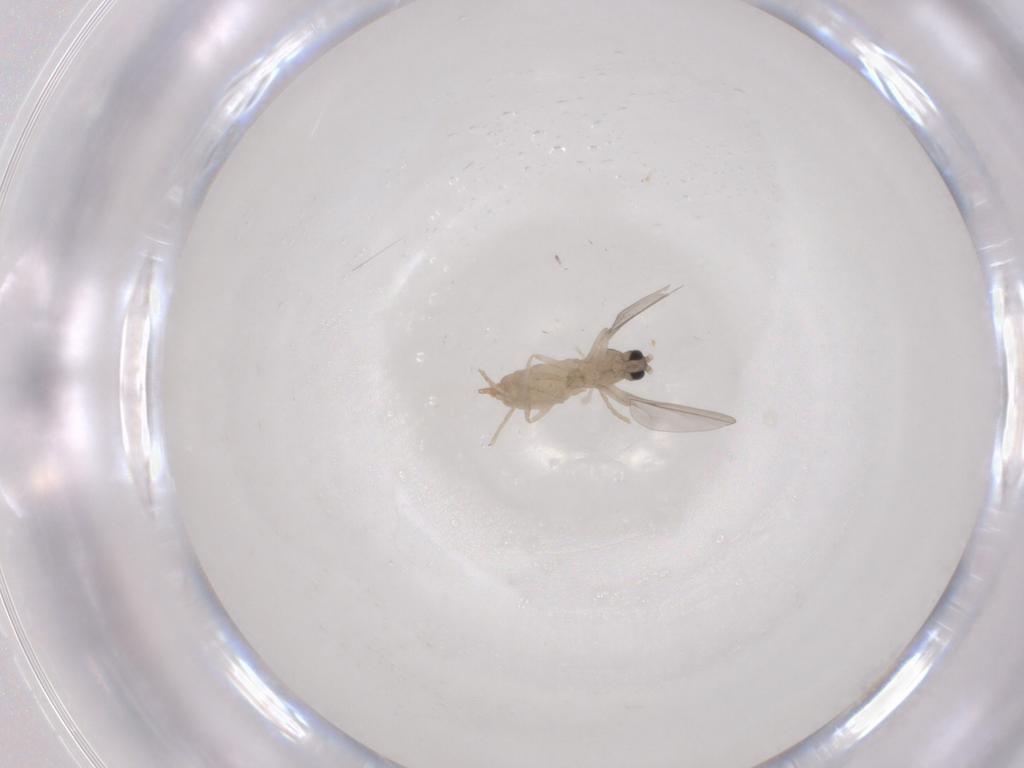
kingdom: Animalia
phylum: Arthropoda
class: Insecta
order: Diptera
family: Cecidomyiidae
